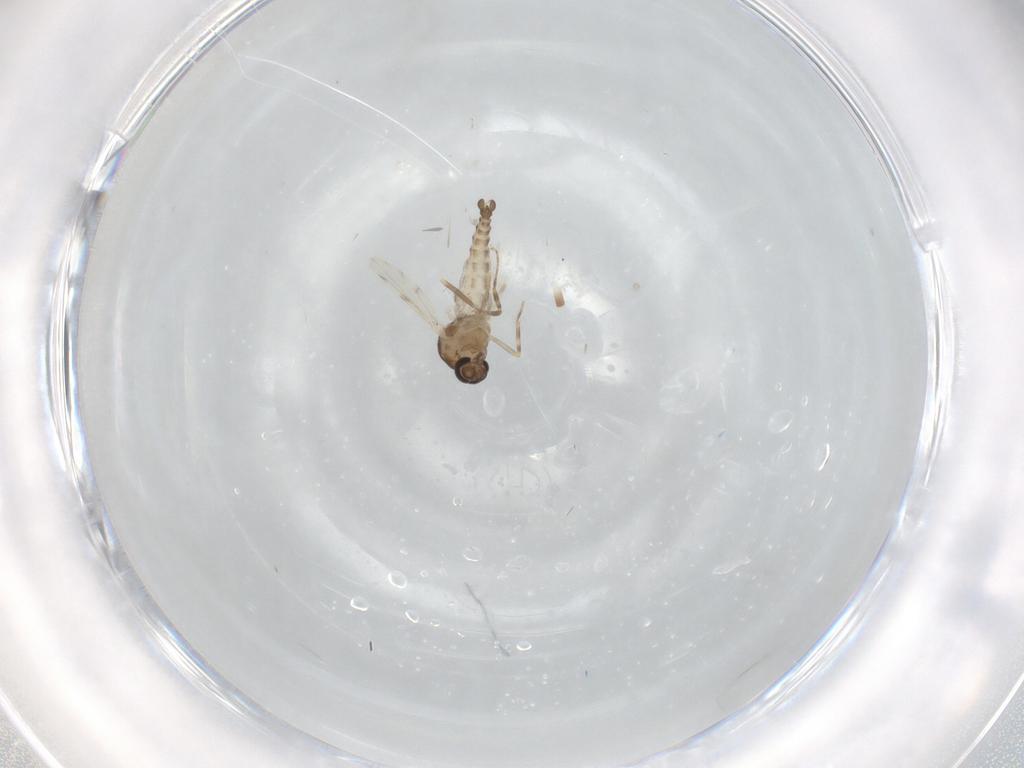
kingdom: Animalia
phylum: Arthropoda
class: Insecta
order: Diptera
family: Ceratopogonidae
